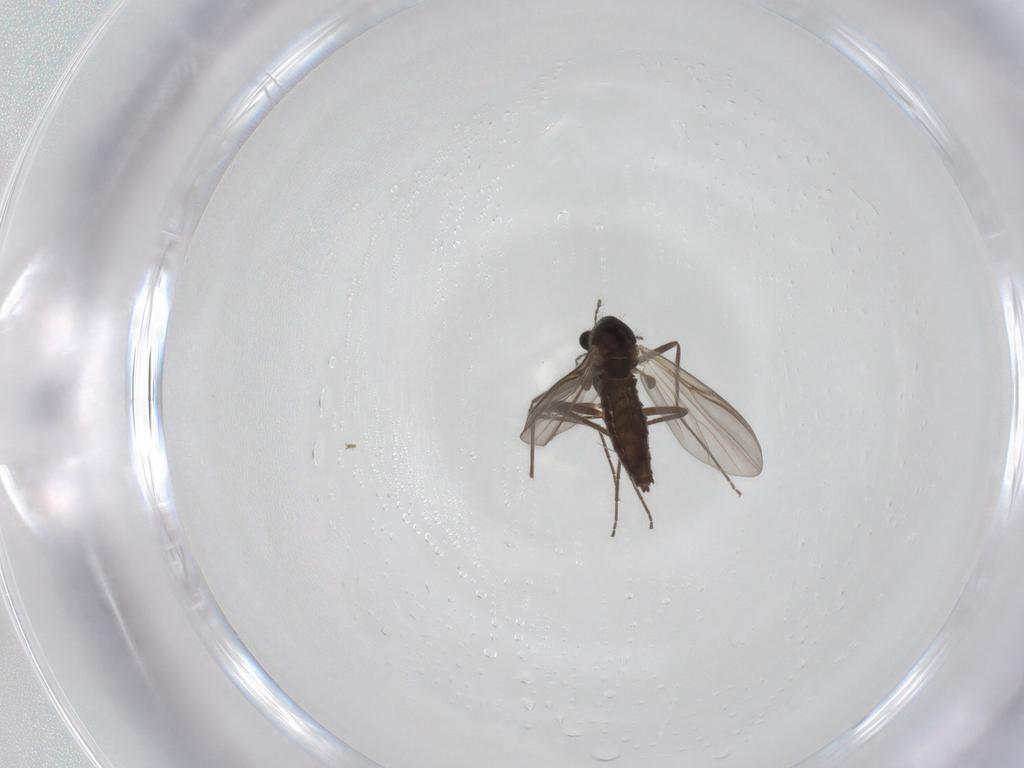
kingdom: Animalia
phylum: Arthropoda
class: Insecta
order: Diptera
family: Chironomidae
